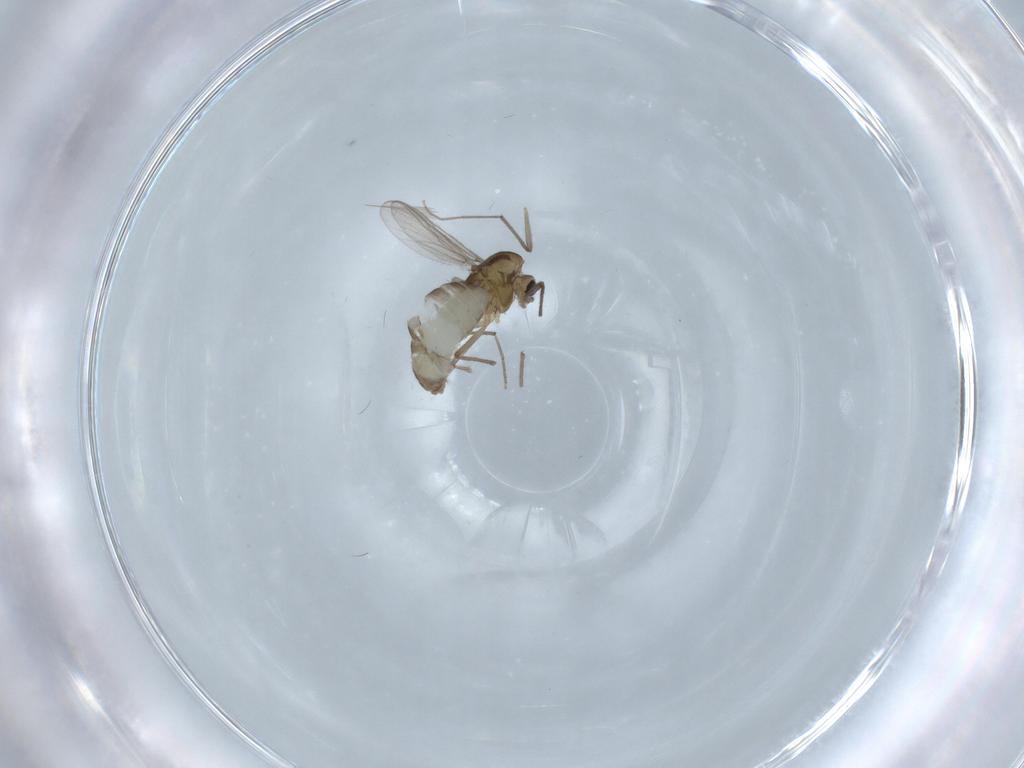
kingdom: Animalia
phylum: Arthropoda
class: Insecta
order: Diptera
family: Chironomidae
